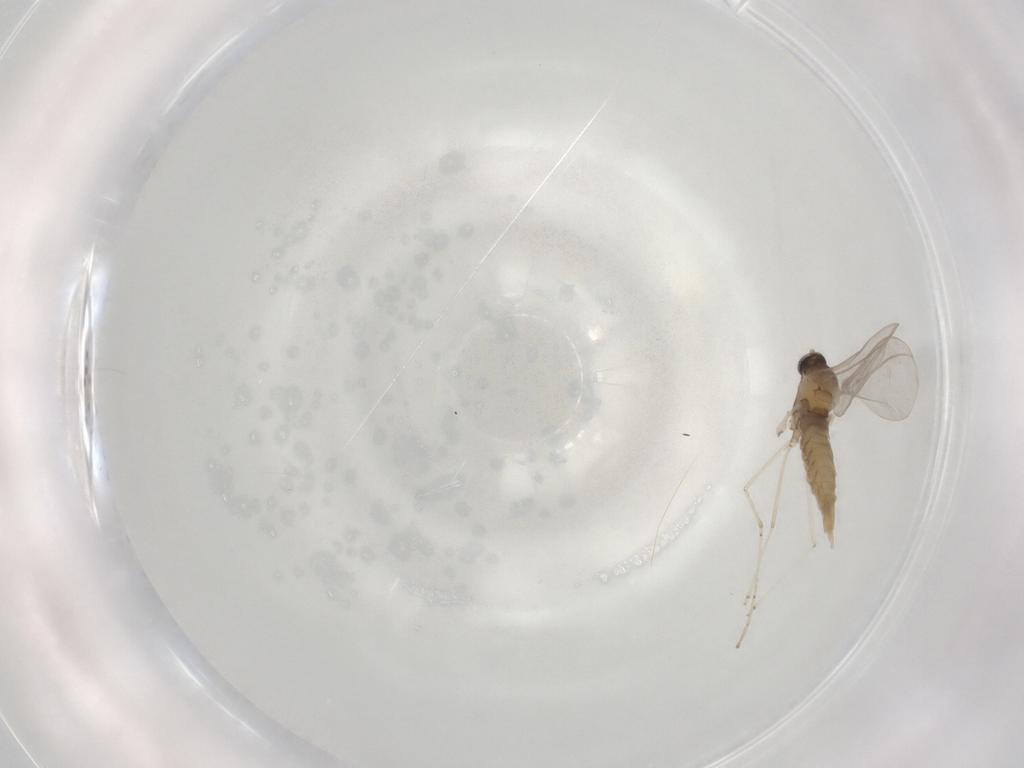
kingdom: Animalia
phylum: Arthropoda
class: Insecta
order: Diptera
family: Cecidomyiidae
